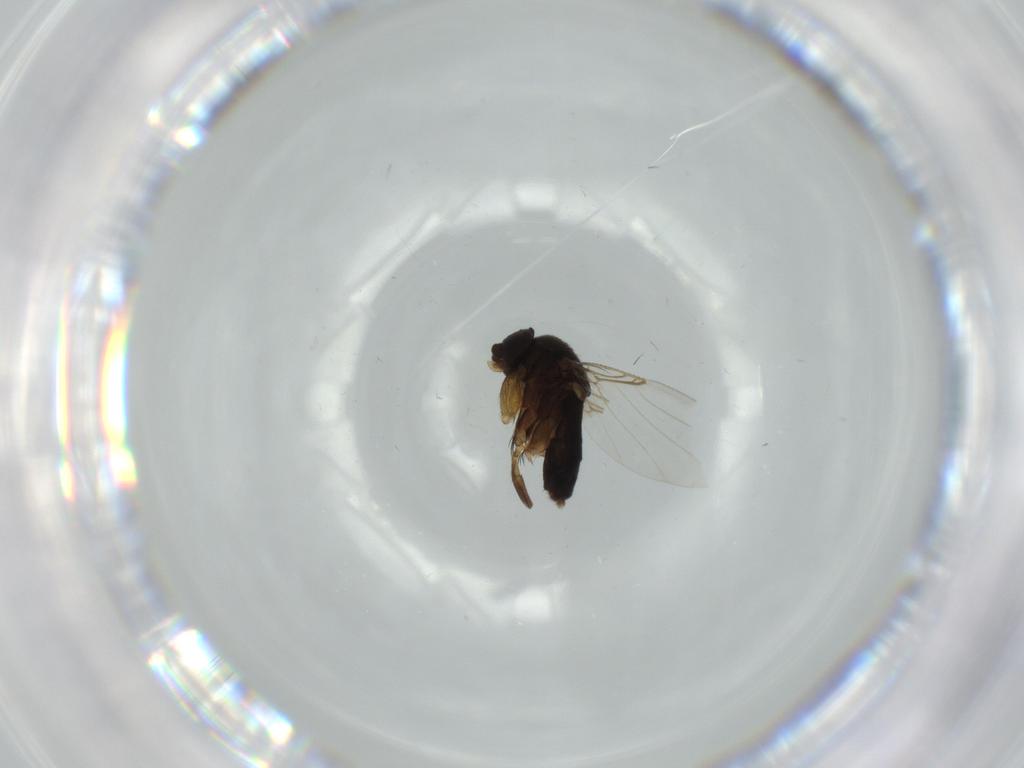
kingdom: Animalia
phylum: Arthropoda
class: Insecta
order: Diptera
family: Phoridae
